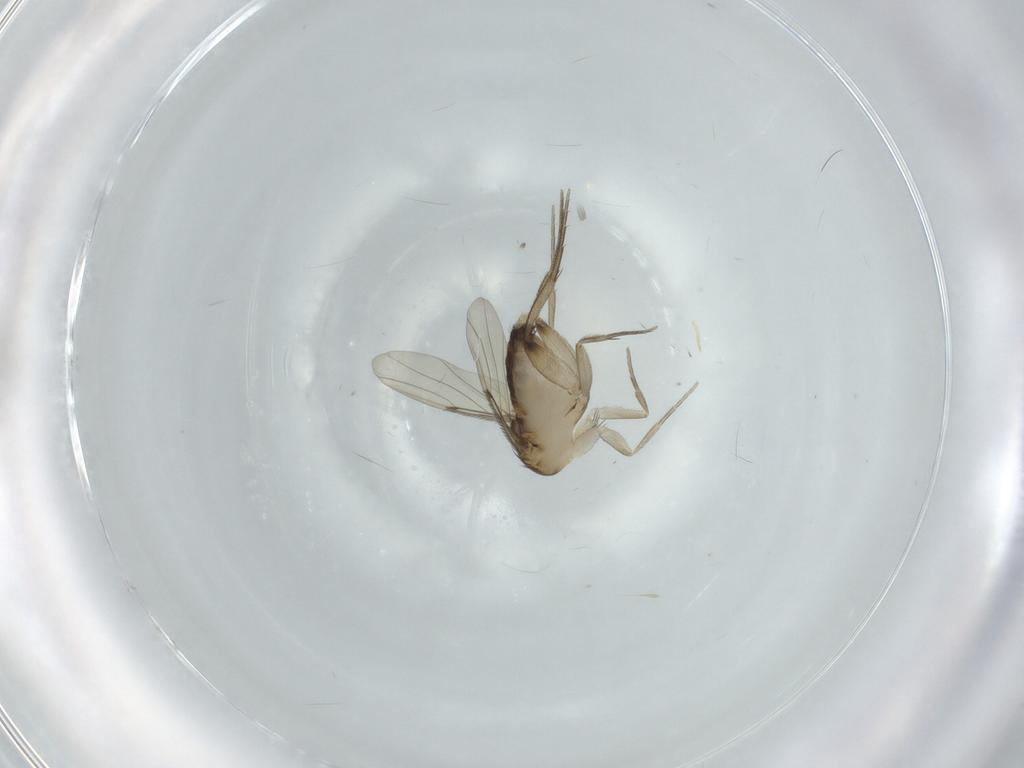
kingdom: Animalia
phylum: Arthropoda
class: Insecta
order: Diptera
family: Phoridae
